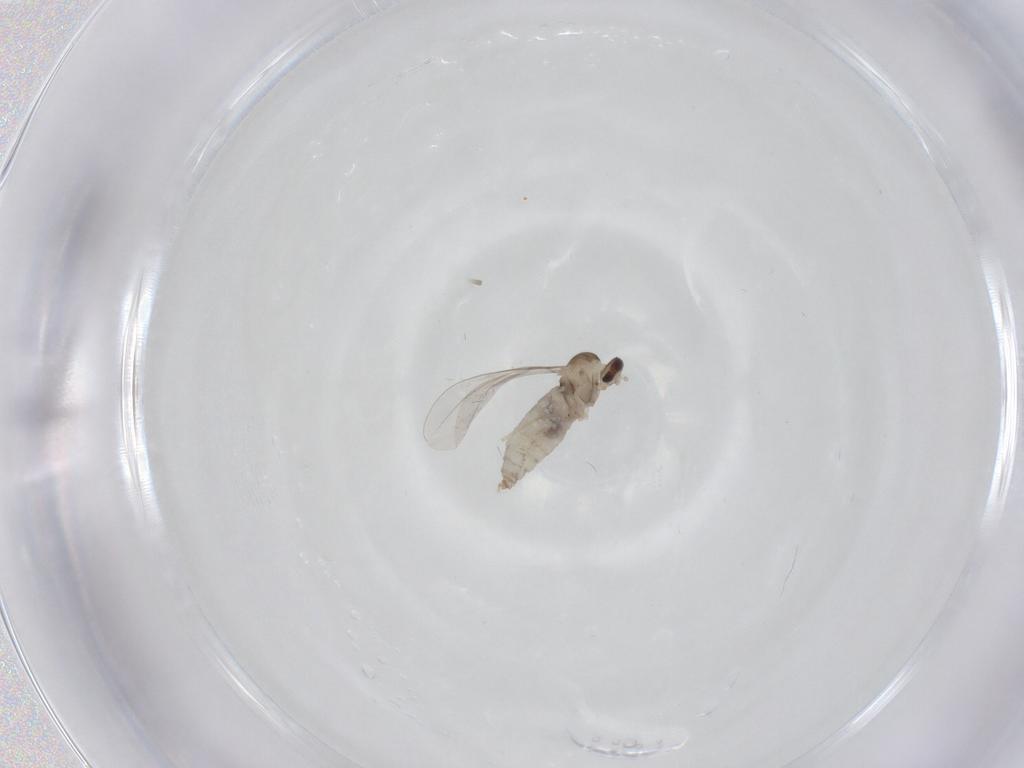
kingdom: Animalia
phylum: Arthropoda
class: Insecta
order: Diptera
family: Cecidomyiidae
